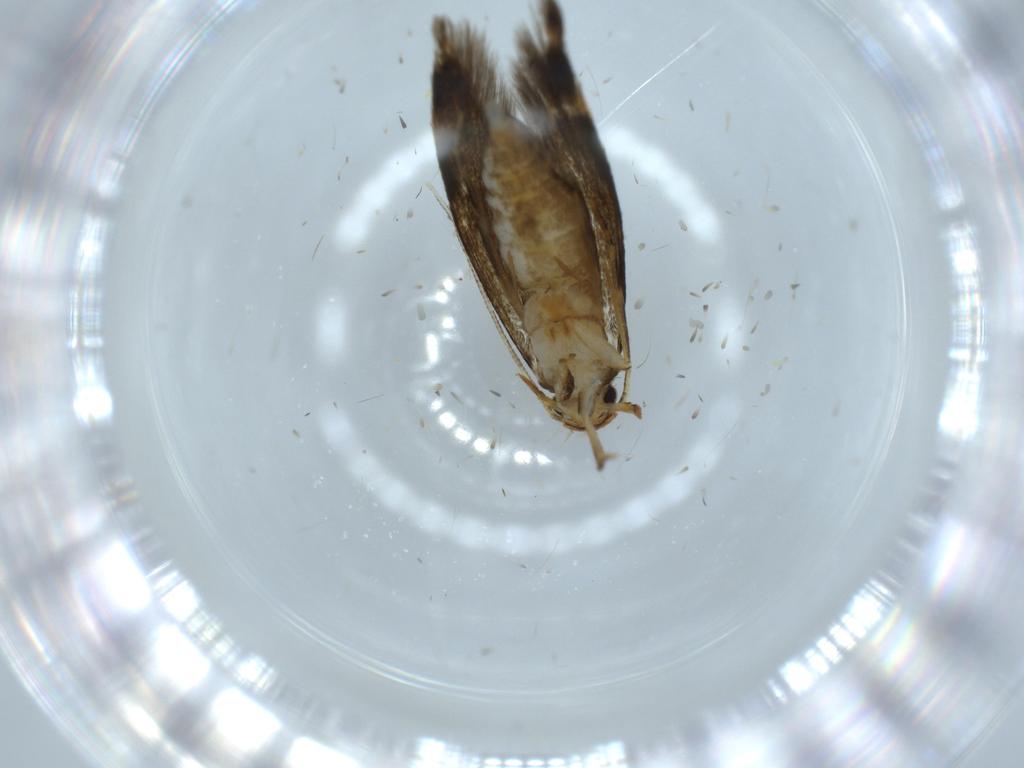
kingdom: Animalia
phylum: Arthropoda
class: Insecta
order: Lepidoptera
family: Tineidae
